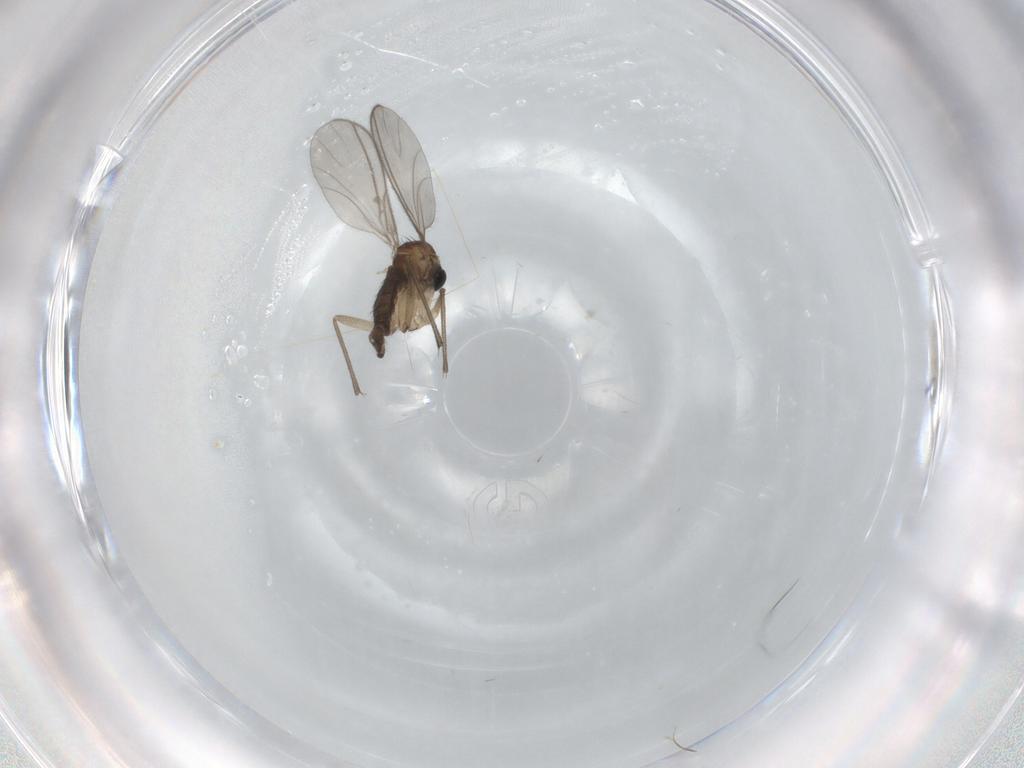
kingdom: Animalia
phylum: Arthropoda
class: Insecta
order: Diptera
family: Sciaridae
